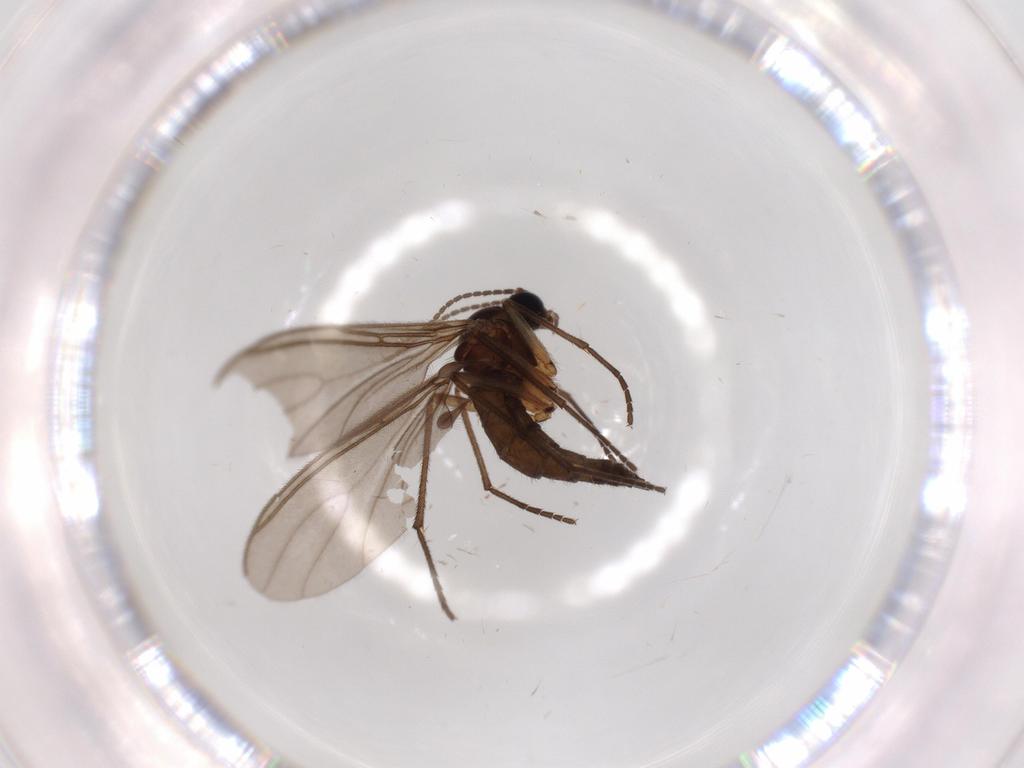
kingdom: Animalia
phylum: Arthropoda
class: Insecta
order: Diptera
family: Sciaridae
